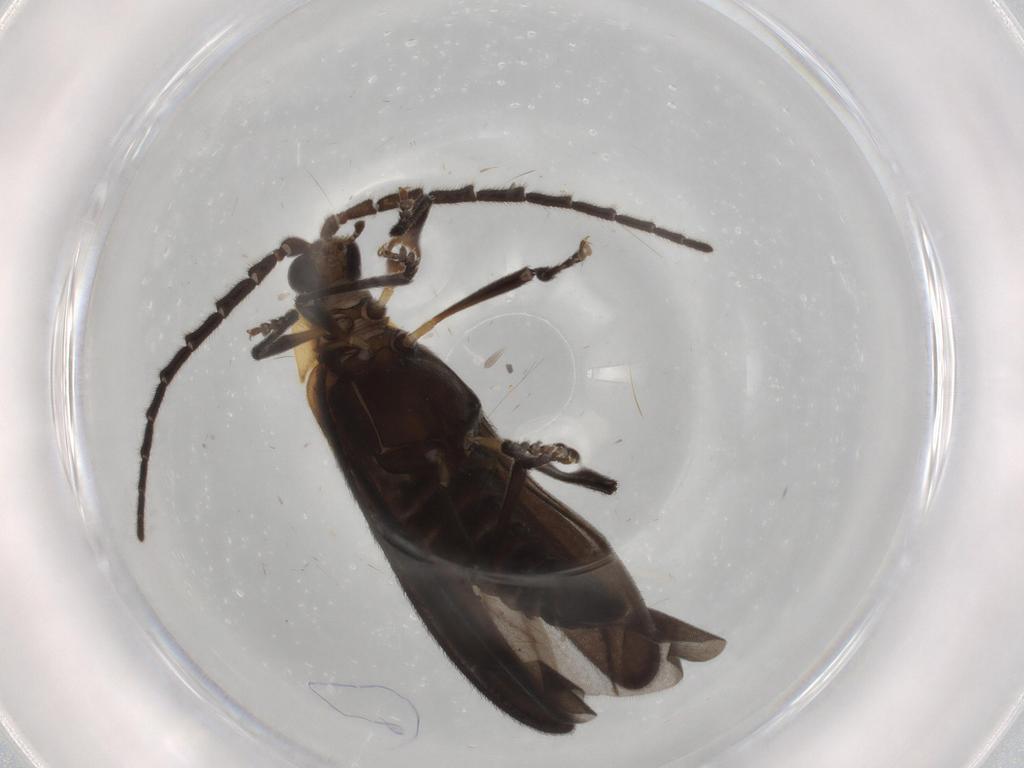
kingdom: Animalia
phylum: Arthropoda
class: Insecta
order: Coleoptera
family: Lycidae
